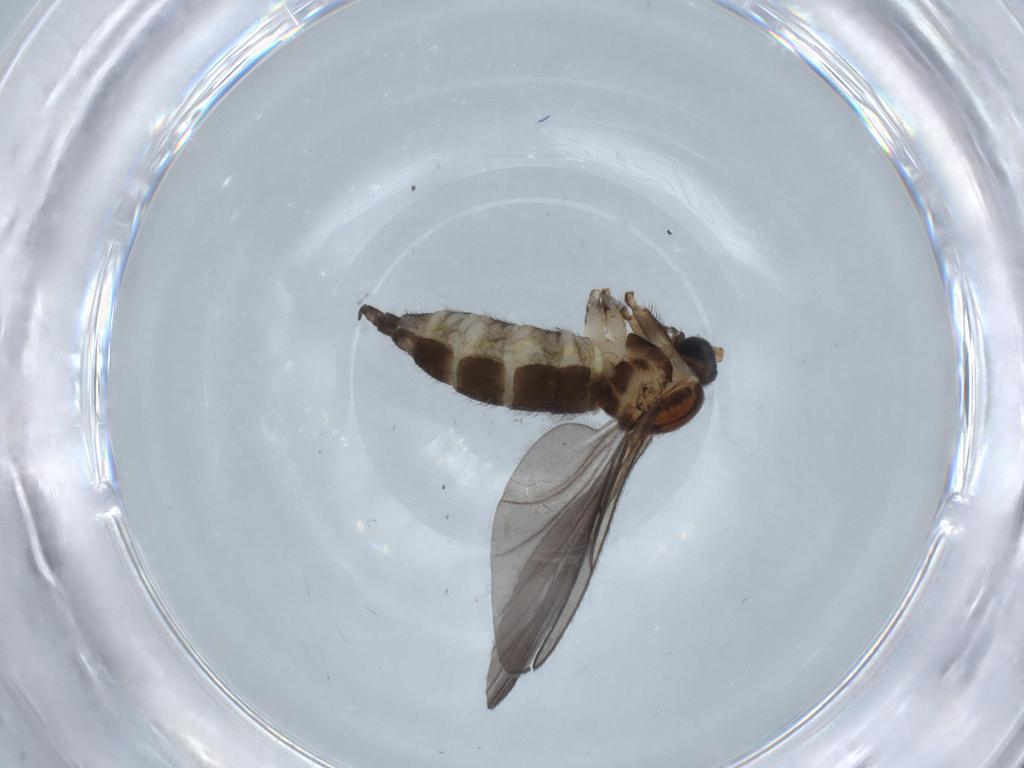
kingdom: Animalia
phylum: Arthropoda
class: Insecta
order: Diptera
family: Sciaridae
